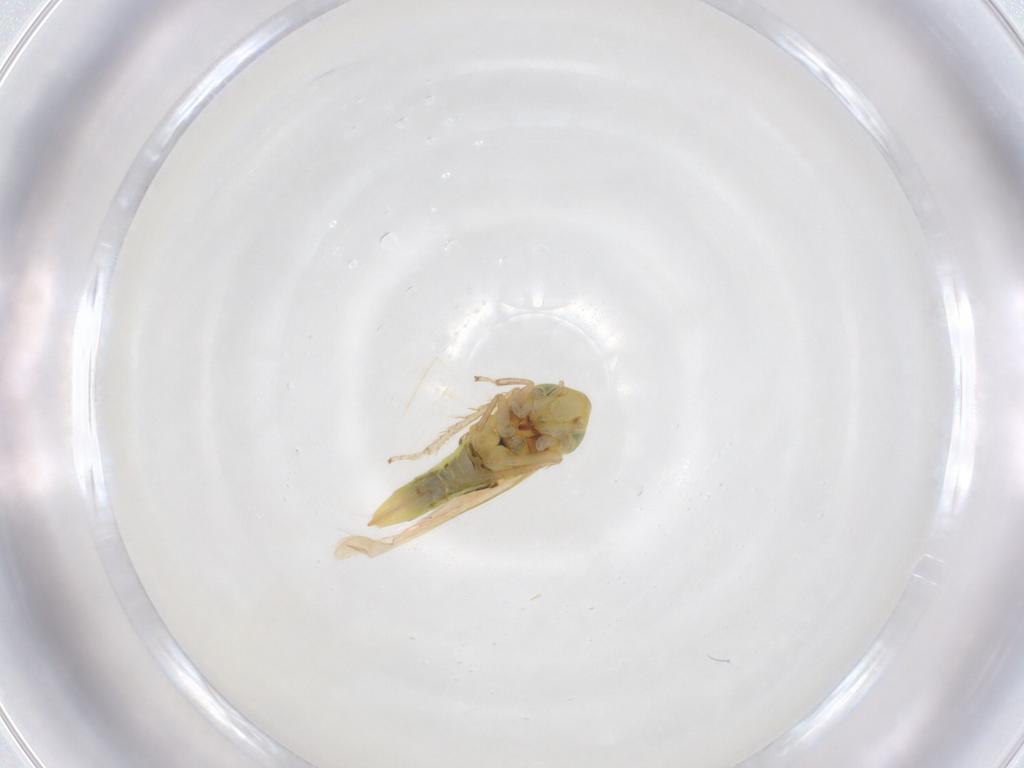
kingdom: Animalia
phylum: Arthropoda
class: Insecta
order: Hemiptera
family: Cicadellidae
